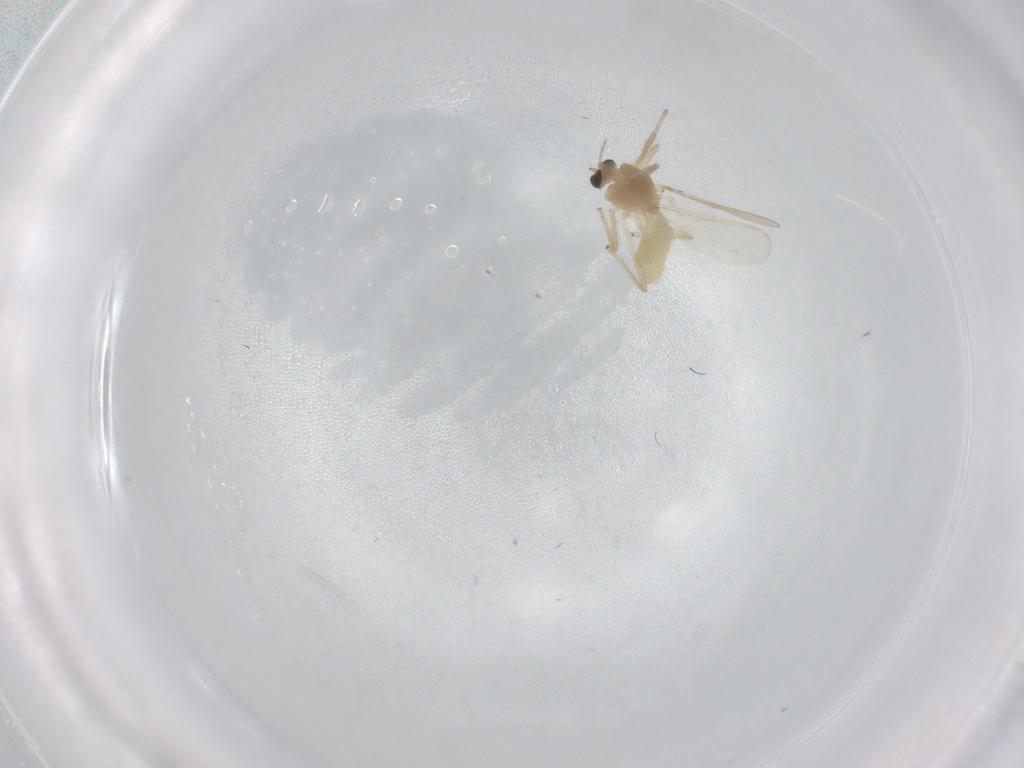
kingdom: Animalia
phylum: Arthropoda
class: Insecta
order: Diptera
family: Chironomidae
